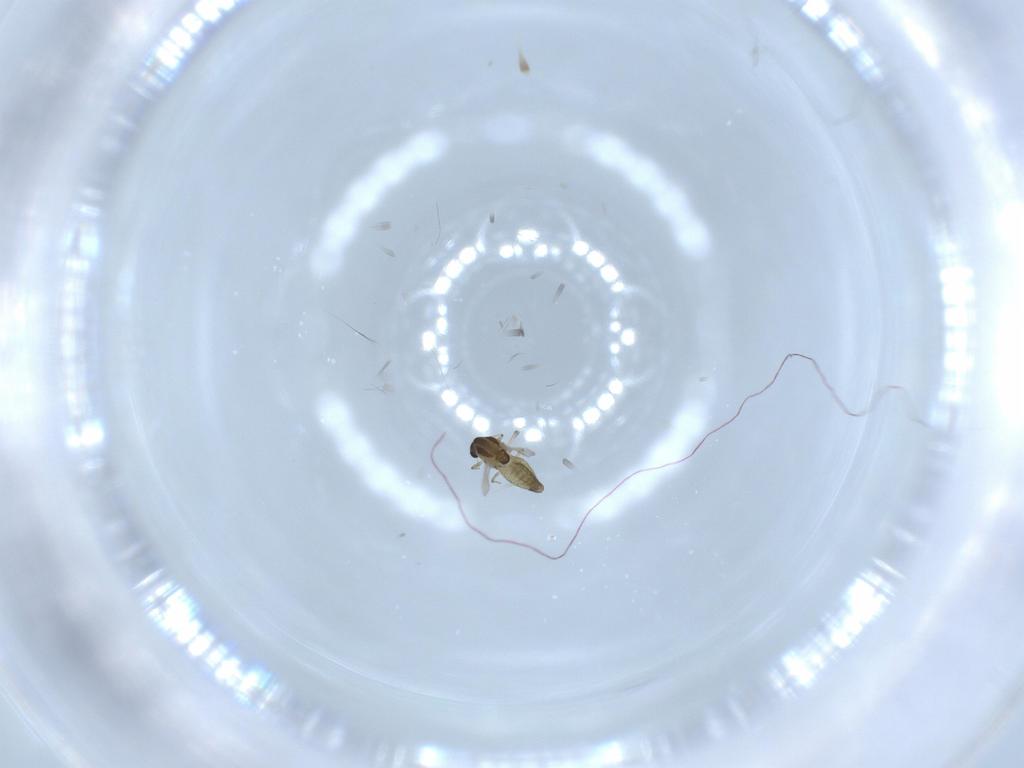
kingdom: Animalia
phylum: Arthropoda
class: Insecta
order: Diptera
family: Chironomidae
